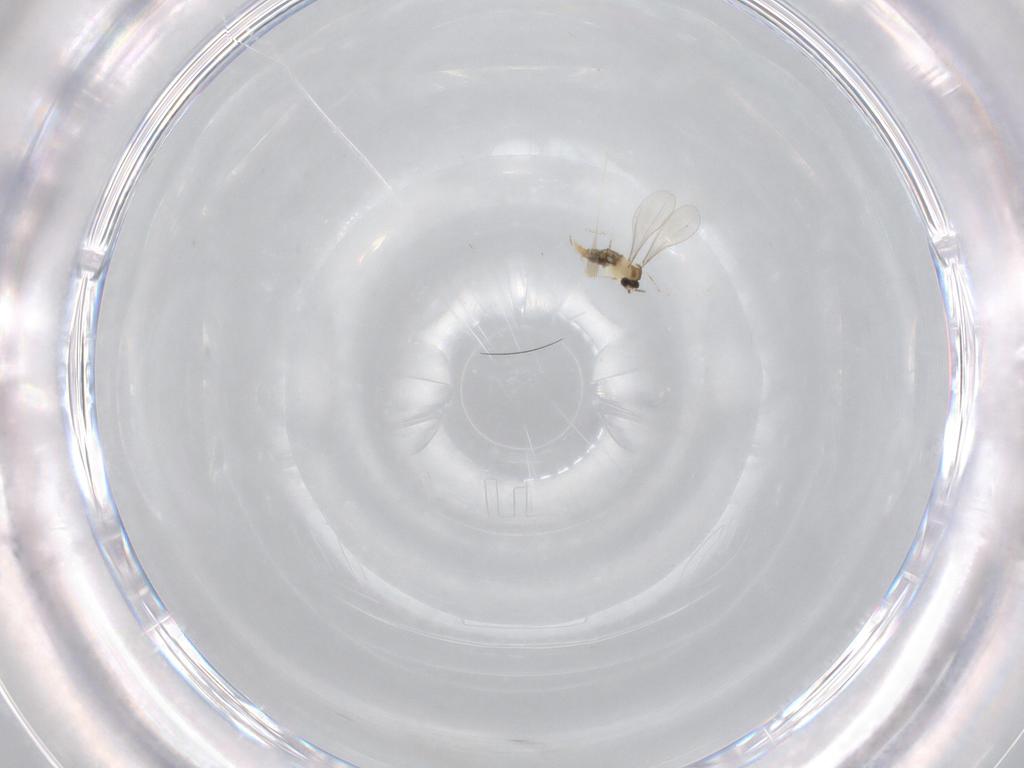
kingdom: Animalia
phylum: Arthropoda
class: Insecta
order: Diptera
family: Cecidomyiidae
